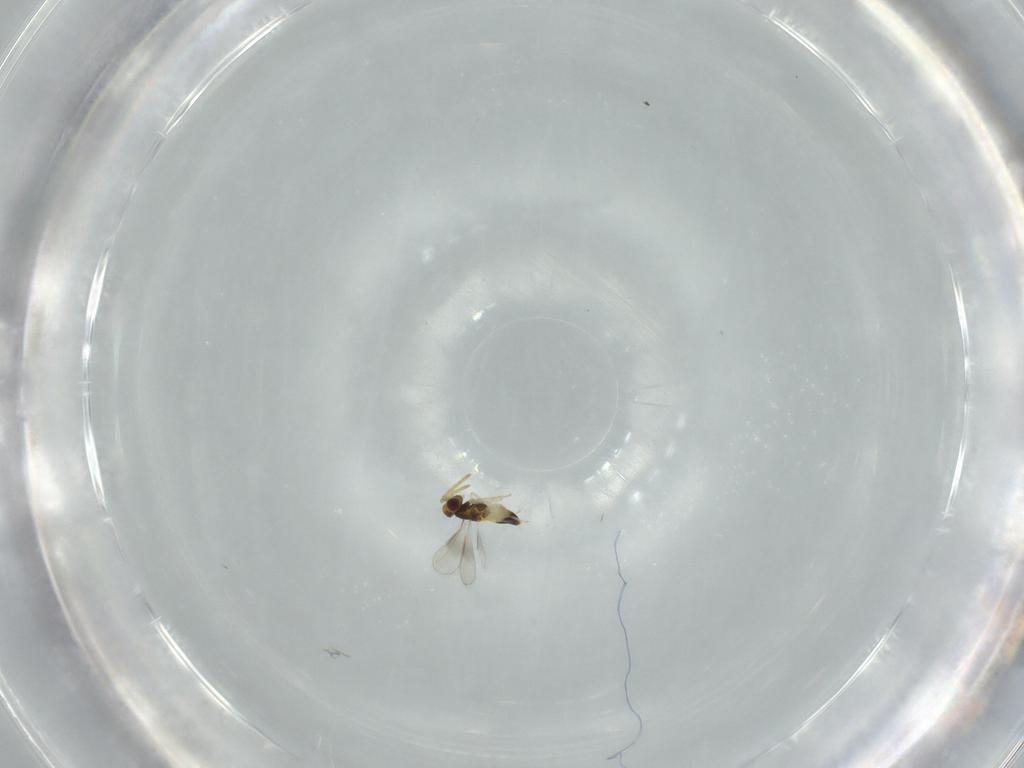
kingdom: Animalia
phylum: Arthropoda
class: Insecta
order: Hymenoptera
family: Aphelinidae
